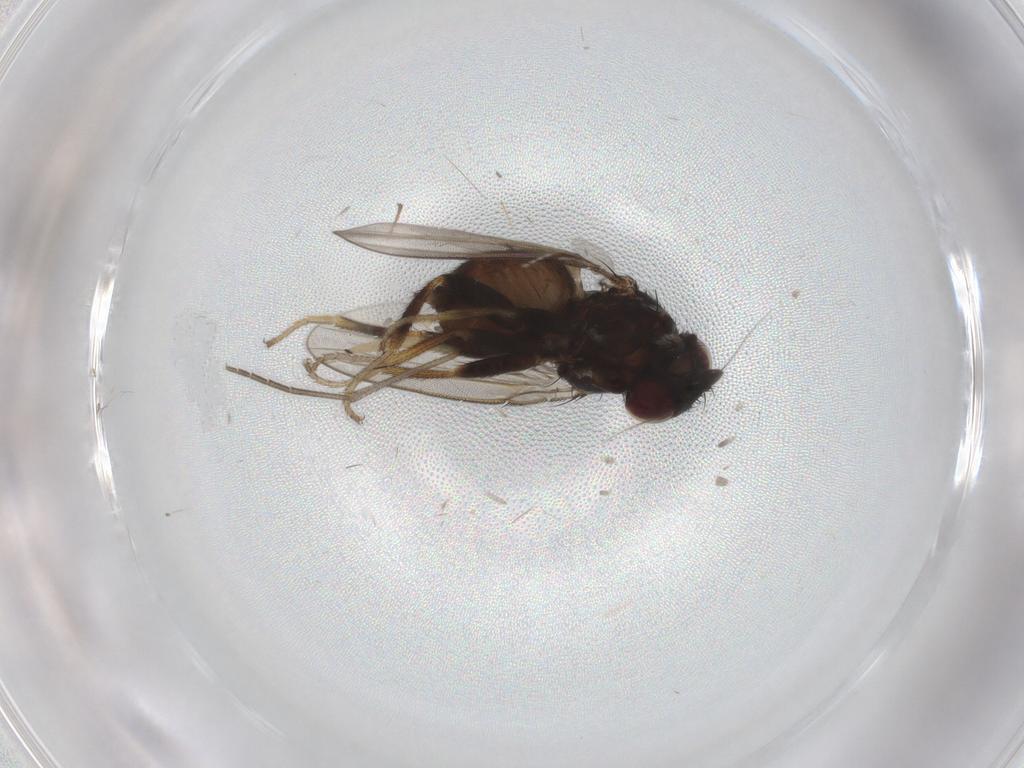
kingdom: Animalia
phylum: Arthropoda
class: Insecta
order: Diptera
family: Milichiidae
